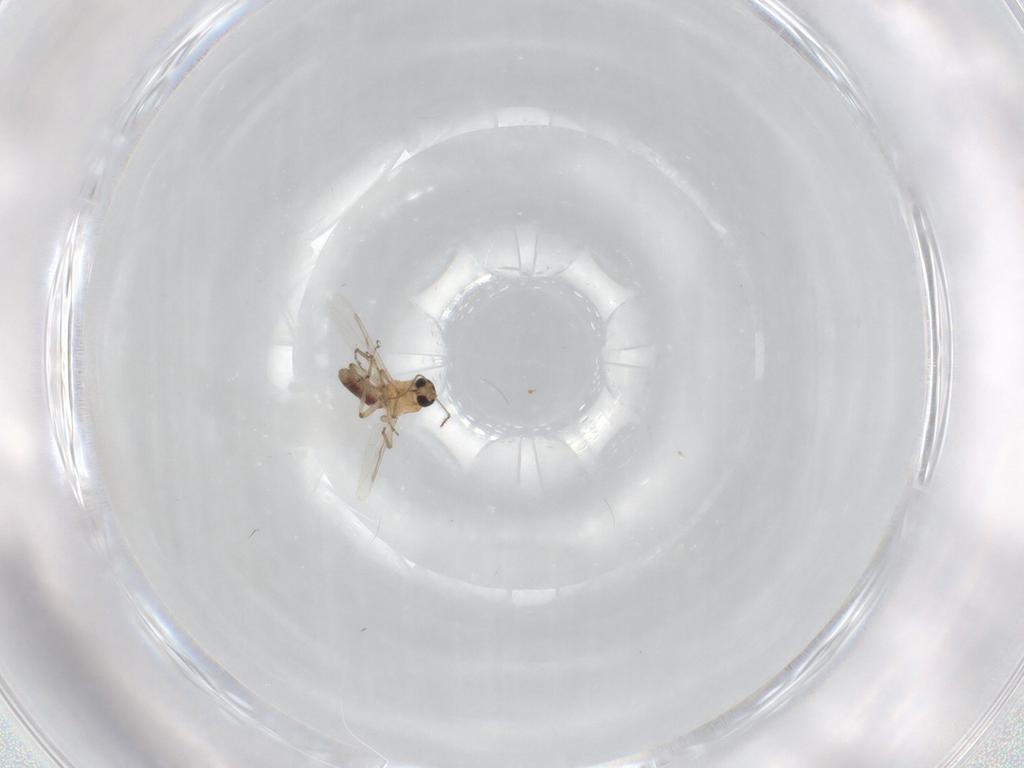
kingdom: Animalia
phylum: Arthropoda
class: Insecta
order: Diptera
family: Ceratopogonidae
